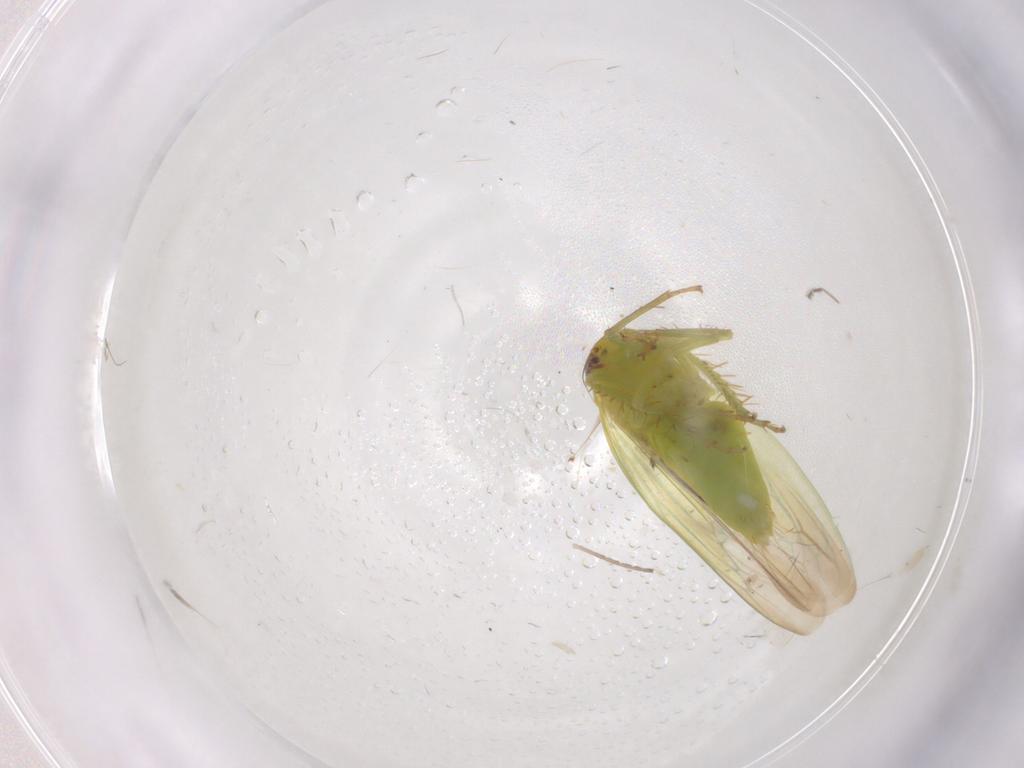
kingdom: Animalia
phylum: Arthropoda
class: Insecta
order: Hemiptera
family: Cicadellidae
